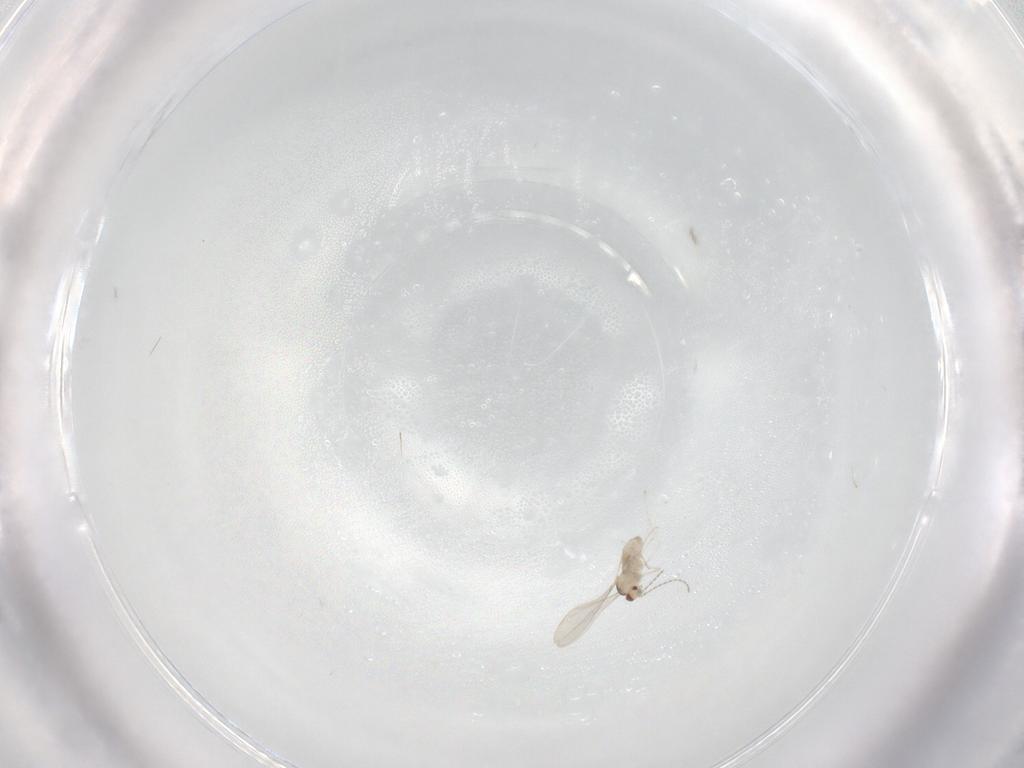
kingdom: Animalia
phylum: Arthropoda
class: Insecta
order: Diptera
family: Cecidomyiidae
